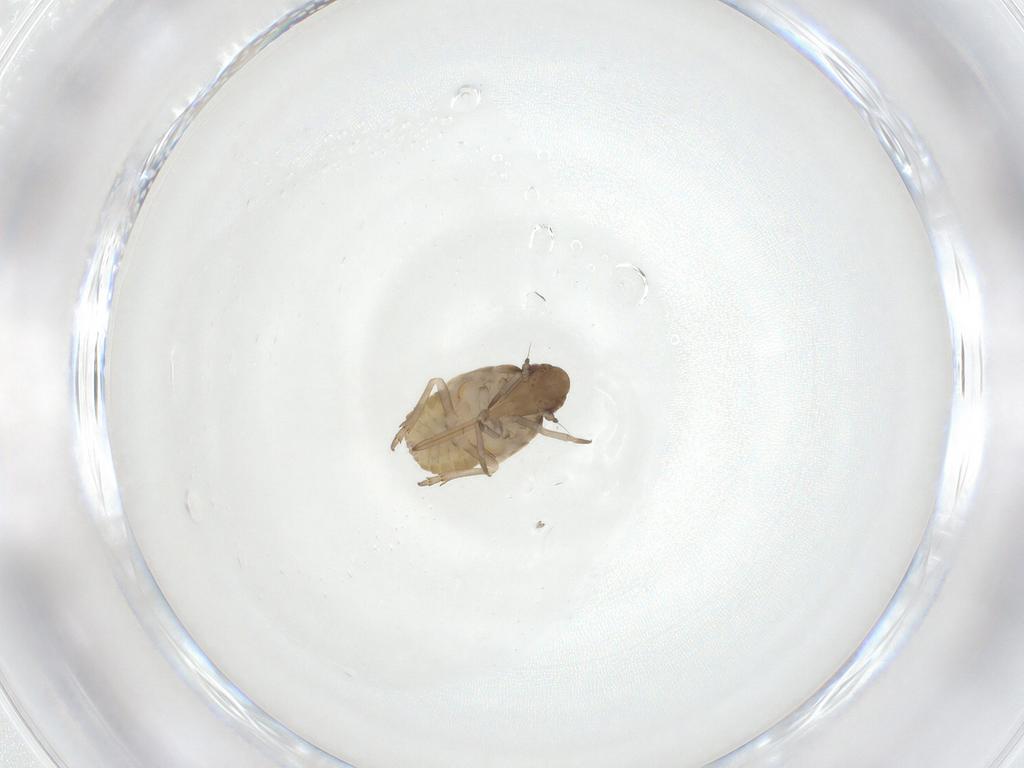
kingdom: Animalia
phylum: Arthropoda
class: Insecta
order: Hemiptera
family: Flatidae
